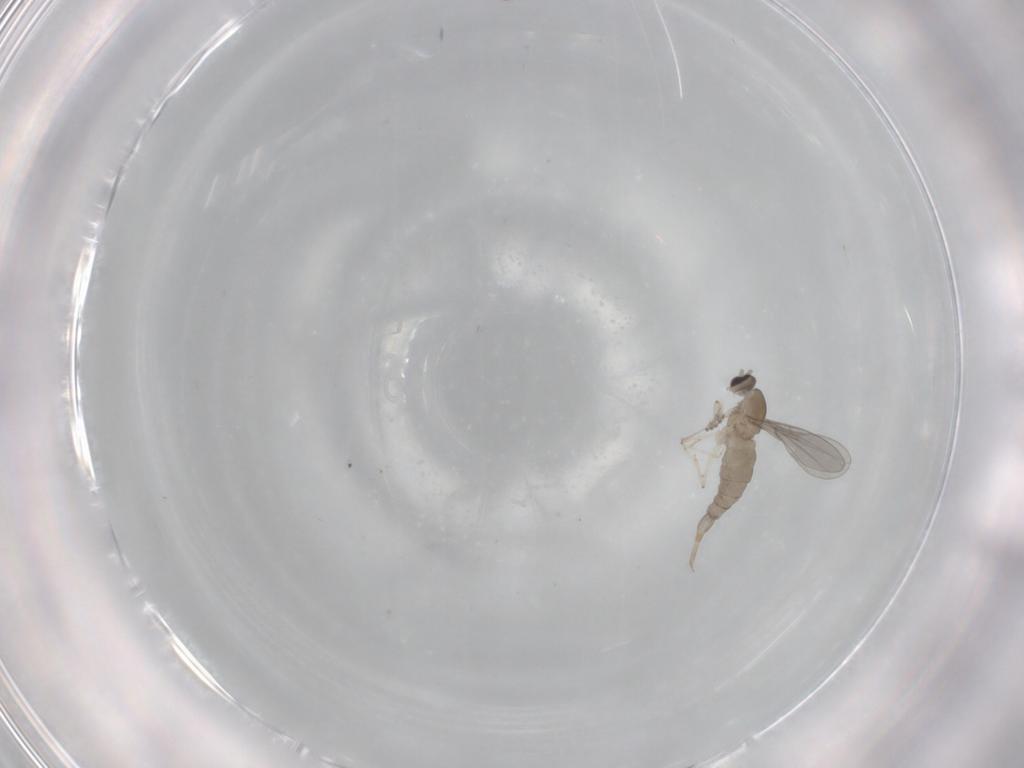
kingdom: Animalia
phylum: Arthropoda
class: Insecta
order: Diptera
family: Cecidomyiidae
